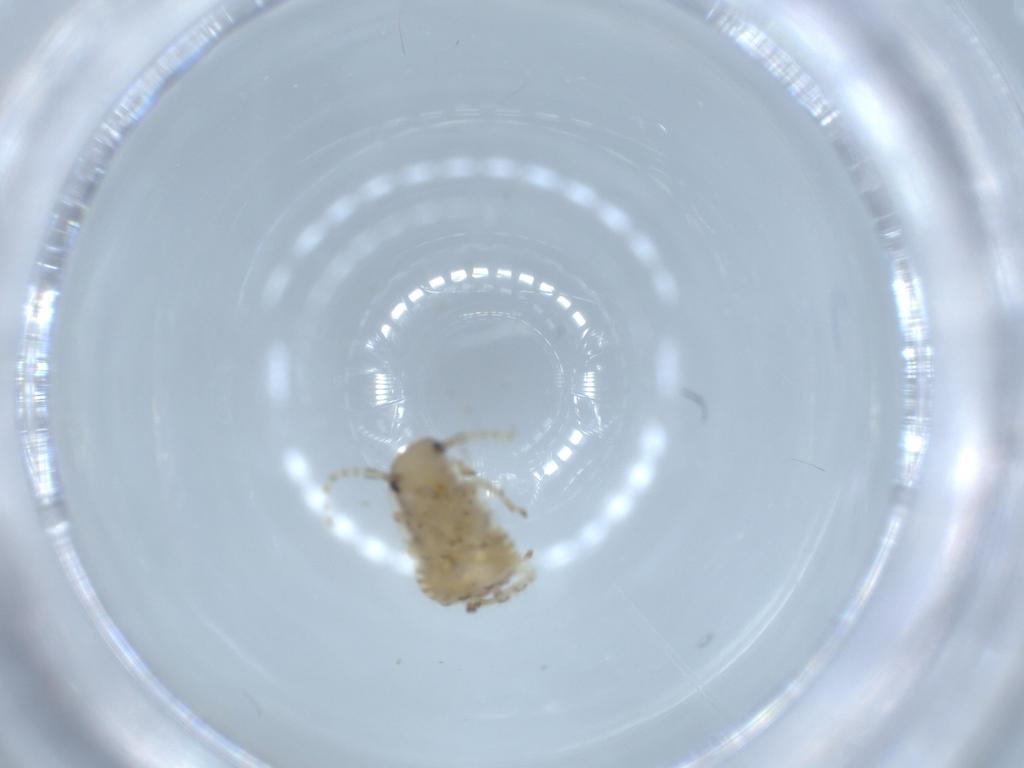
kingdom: Animalia
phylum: Arthropoda
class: Insecta
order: Blattodea
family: Ectobiidae
